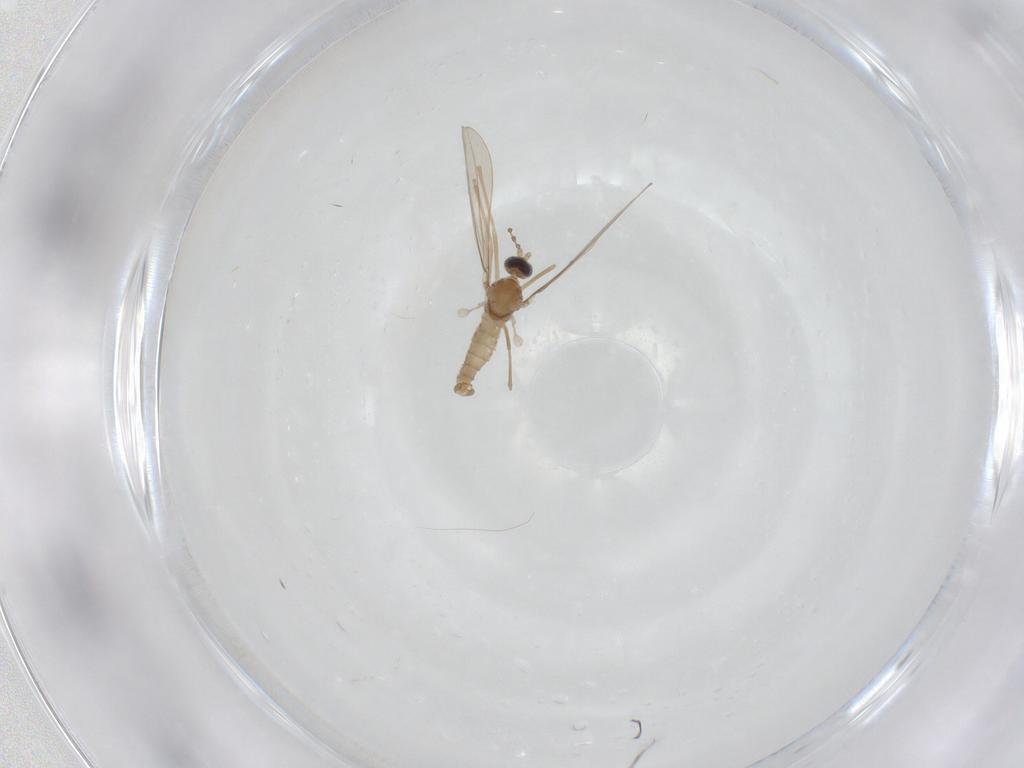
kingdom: Animalia
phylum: Arthropoda
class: Insecta
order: Diptera
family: Cecidomyiidae
